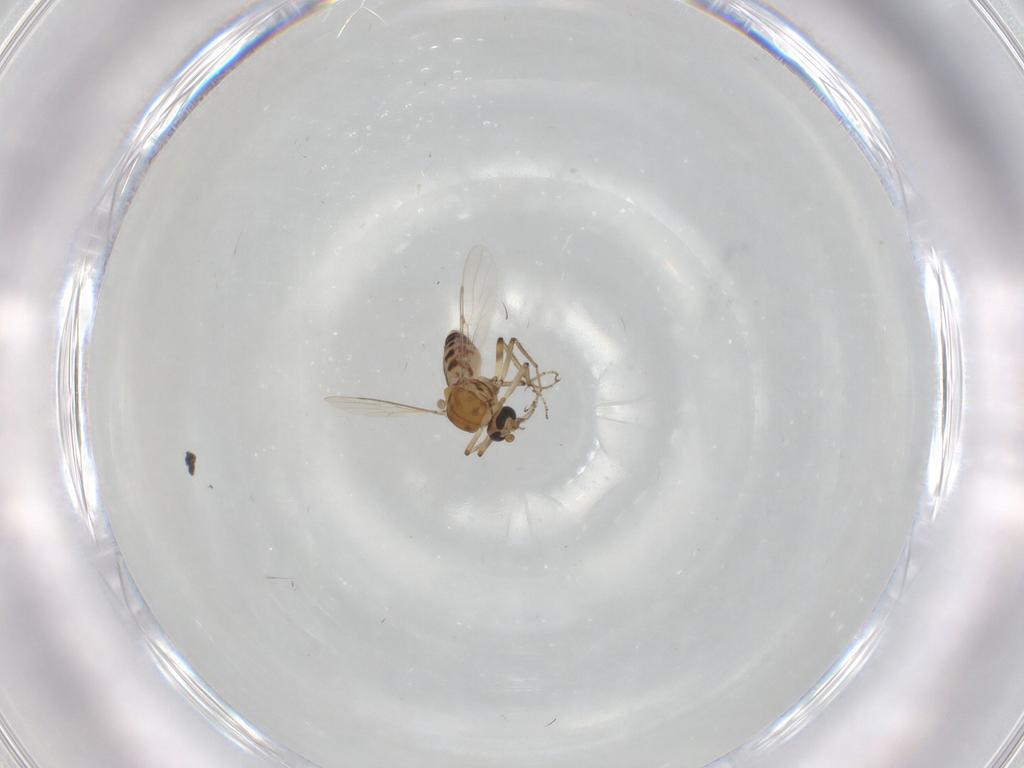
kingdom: Animalia
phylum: Arthropoda
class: Insecta
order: Diptera
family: Ceratopogonidae
